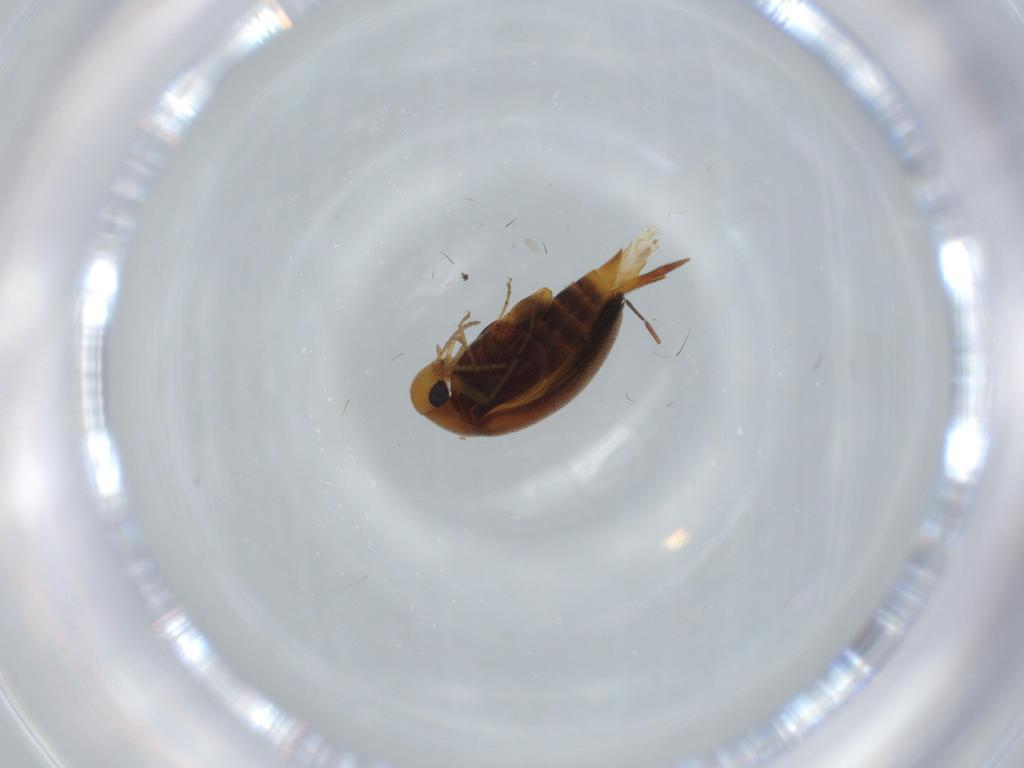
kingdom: Animalia
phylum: Arthropoda
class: Insecta
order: Coleoptera
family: Mordellidae
